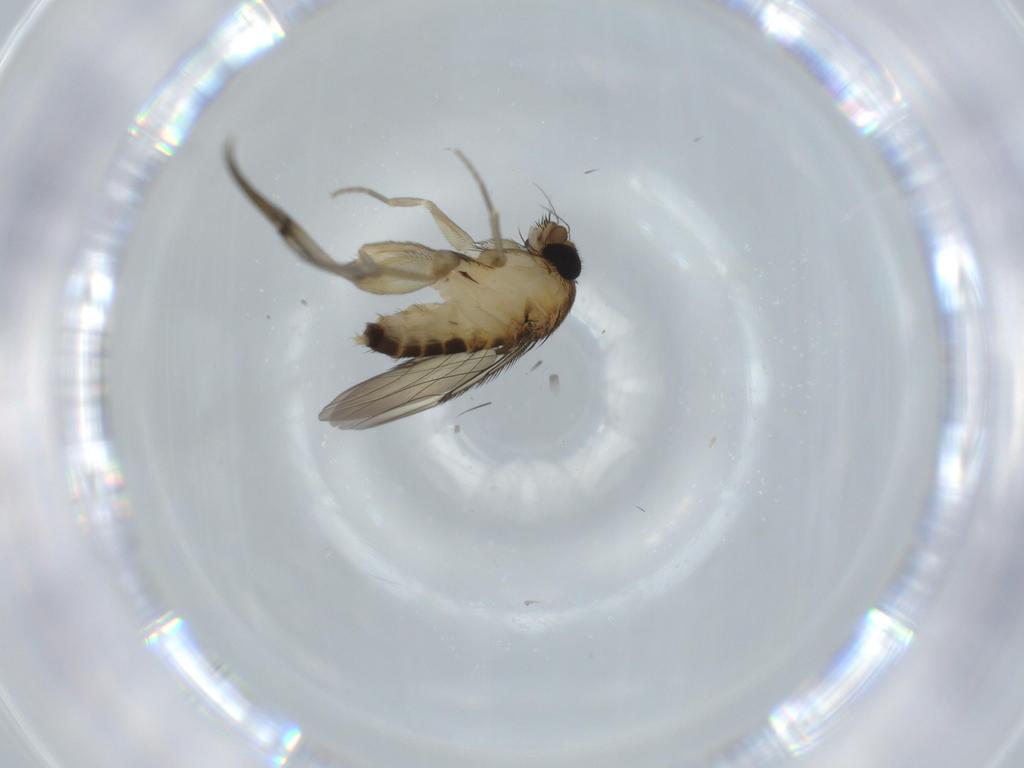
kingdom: Animalia
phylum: Arthropoda
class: Insecta
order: Diptera
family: Phoridae
